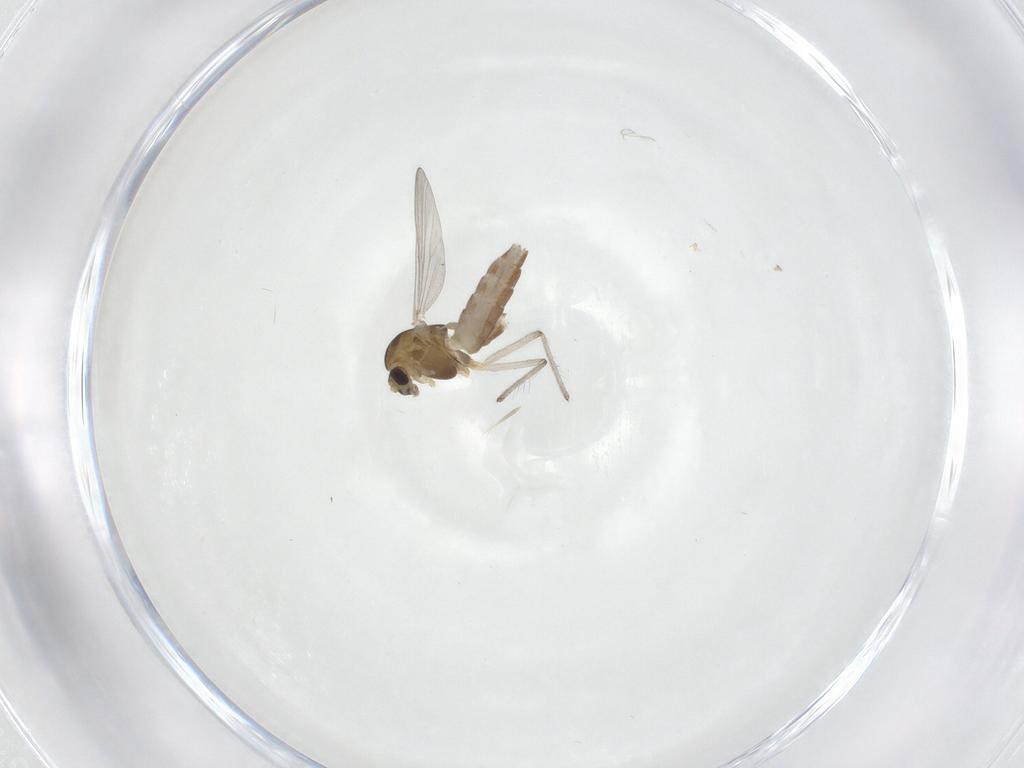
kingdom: Animalia
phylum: Arthropoda
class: Insecta
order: Diptera
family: Chironomidae
